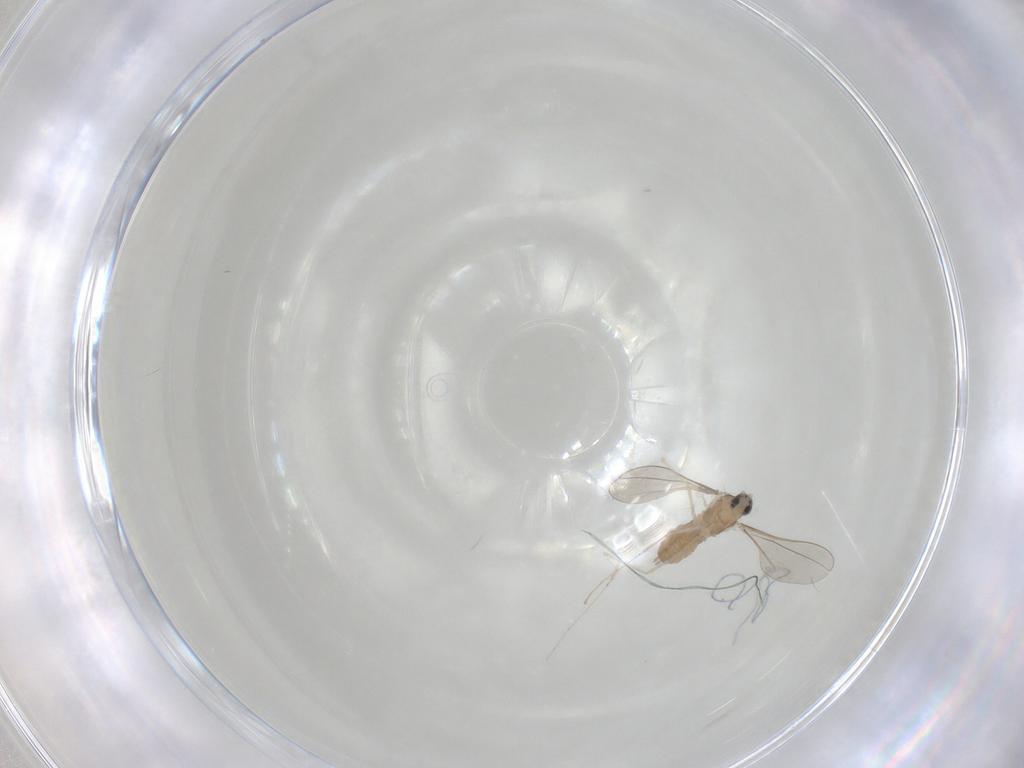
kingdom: Animalia
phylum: Arthropoda
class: Insecta
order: Diptera
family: Cecidomyiidae
